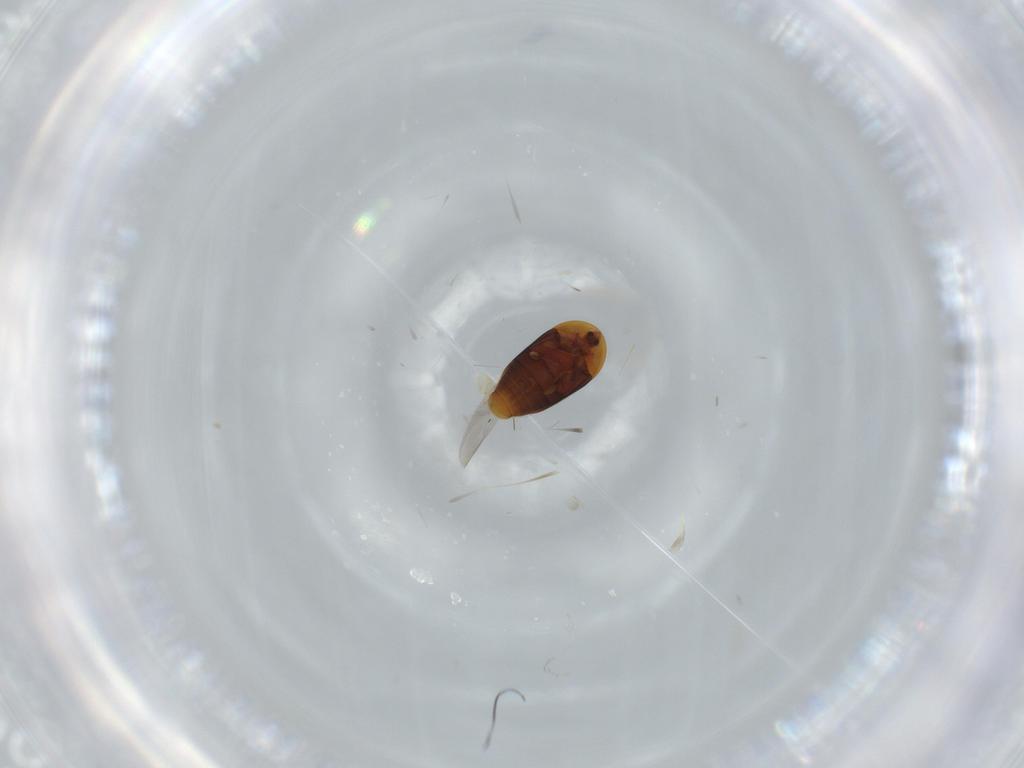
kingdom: Animalia
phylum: Arthropoda
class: Insecta
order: Coleoptera
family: Corylophidae
